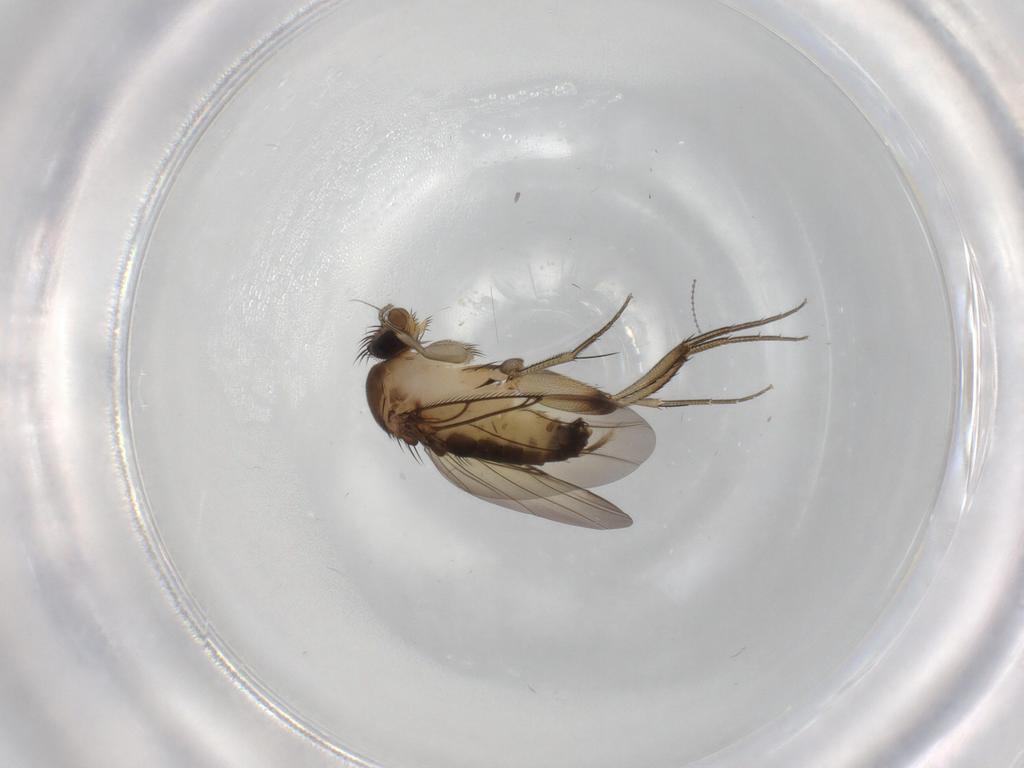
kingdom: Animalia
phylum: Arthropoda
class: Insecta
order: Diptera
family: Phoridae
